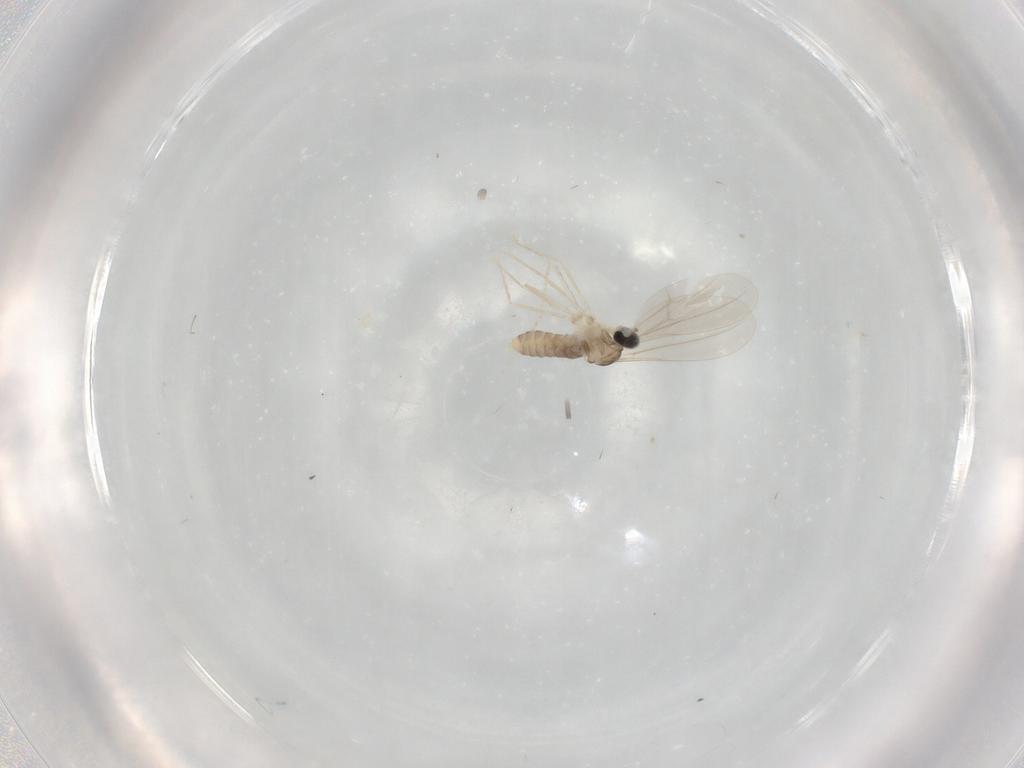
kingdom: Animalia
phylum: Arthropoda
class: Insecta
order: Diptera
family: Cecidomyiidae
